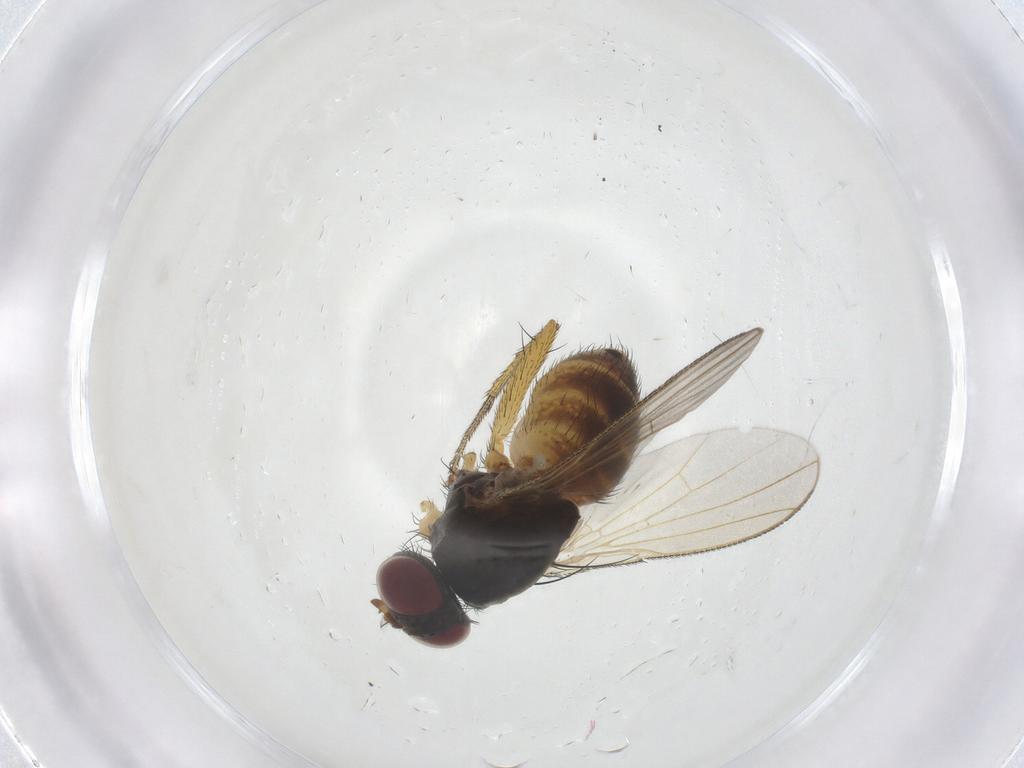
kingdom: Animalia
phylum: Arthropoda
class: Insecta
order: Diptera
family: Muscidae
